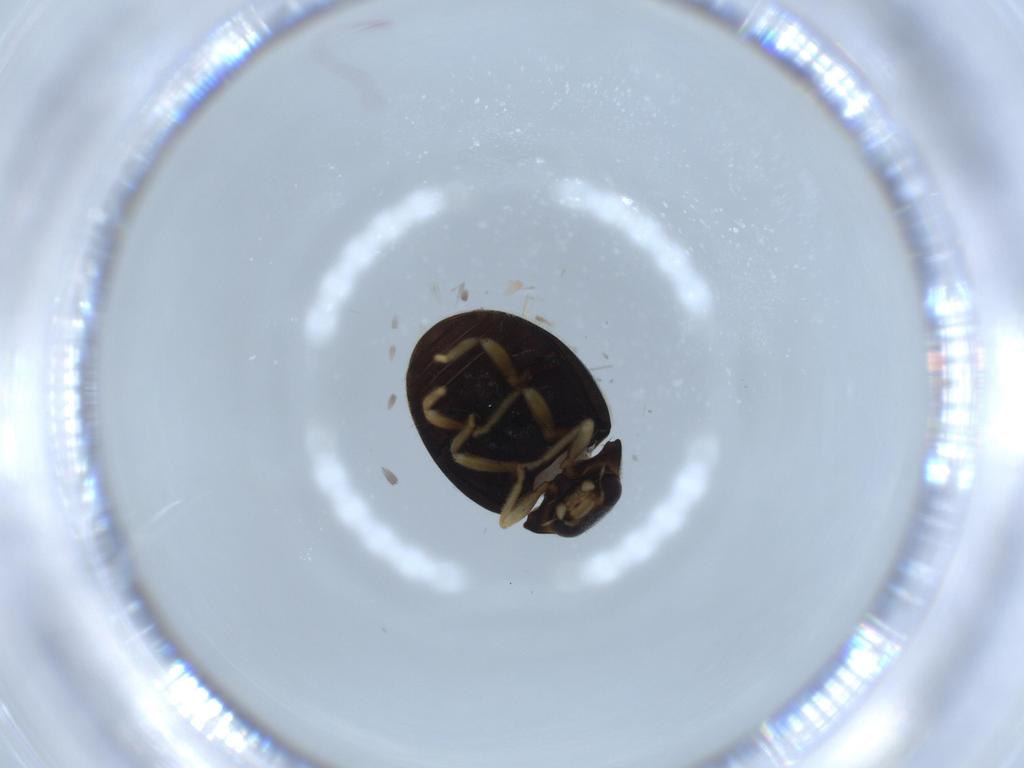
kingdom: Animalia
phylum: Arthropoda
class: Insecta
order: Coleoptera
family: Coccinellidae
